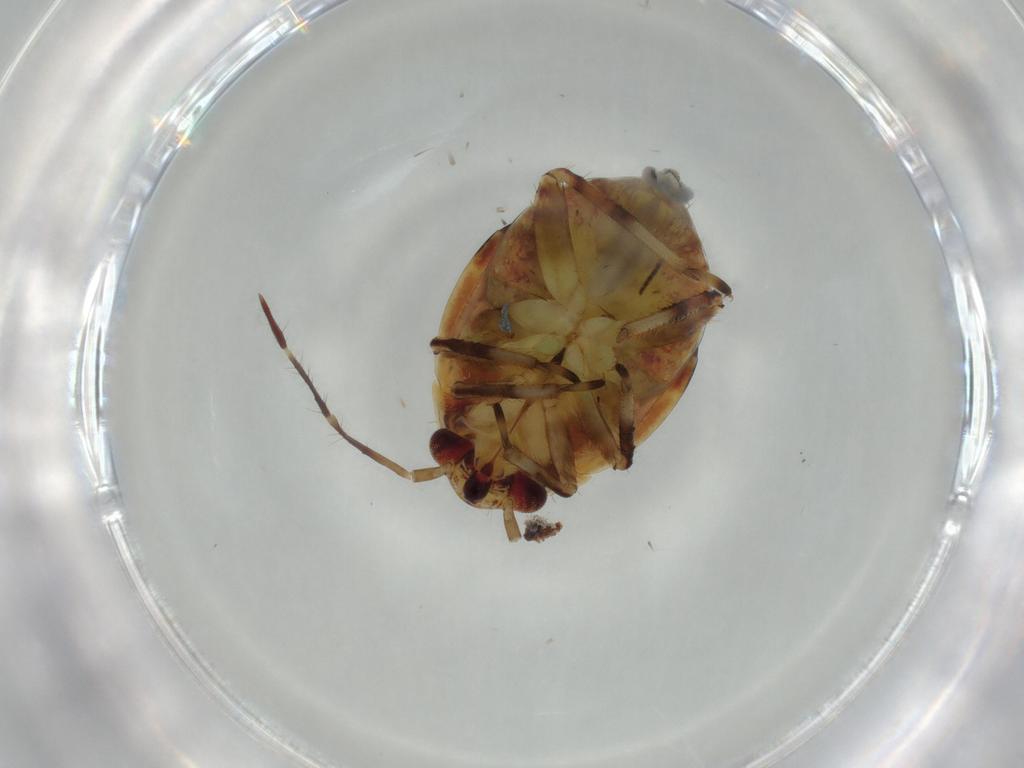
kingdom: Animalia
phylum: Arthropoda
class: Insecta
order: Hemiptera
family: Miridae
